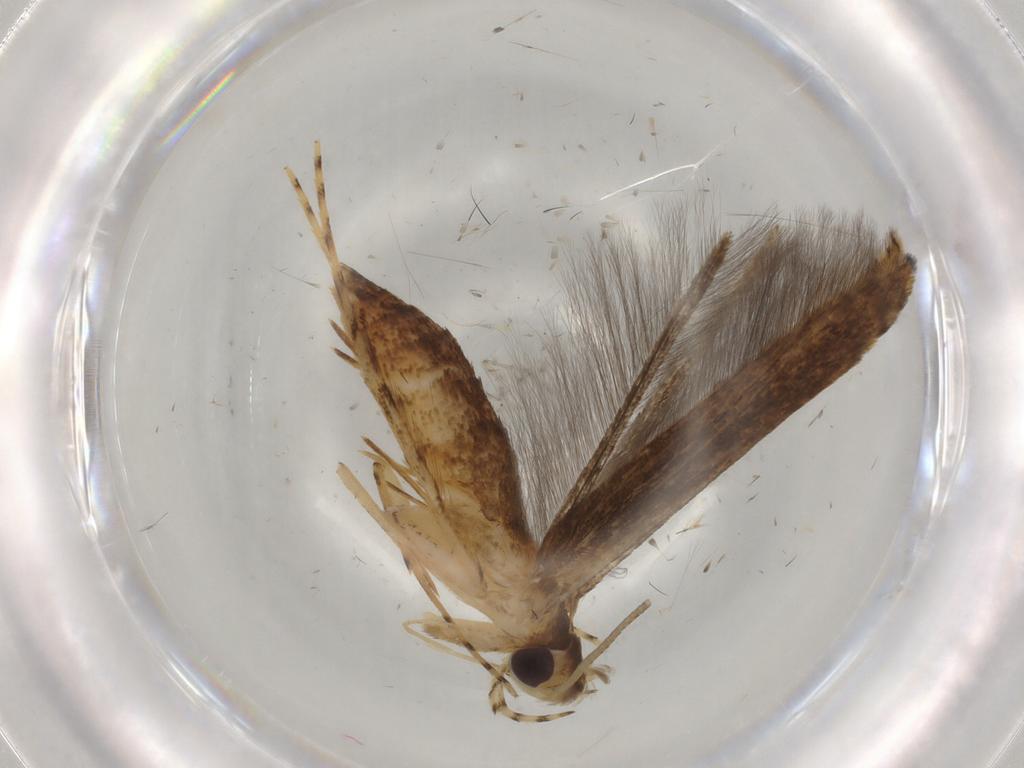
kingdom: Animalia
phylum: Arthropoda
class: Insecta
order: Lepidoptera
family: Batrachedridae
